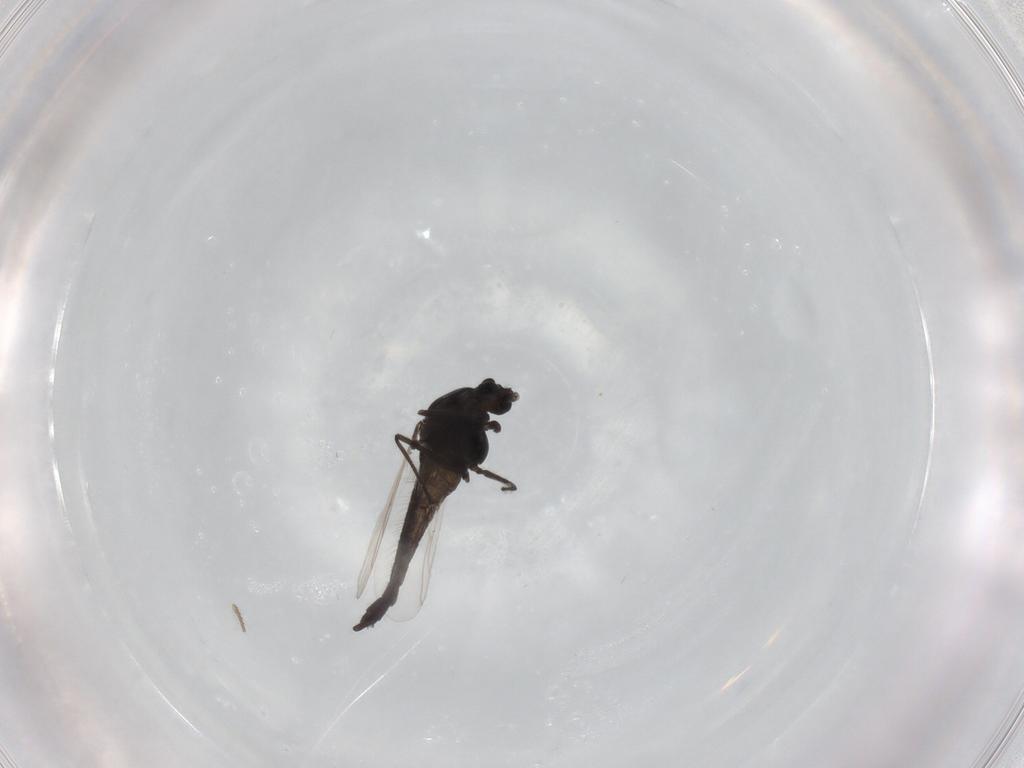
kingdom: Animalia
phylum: Arthropoda
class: Insecta
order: Diptera
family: Chironomidae
